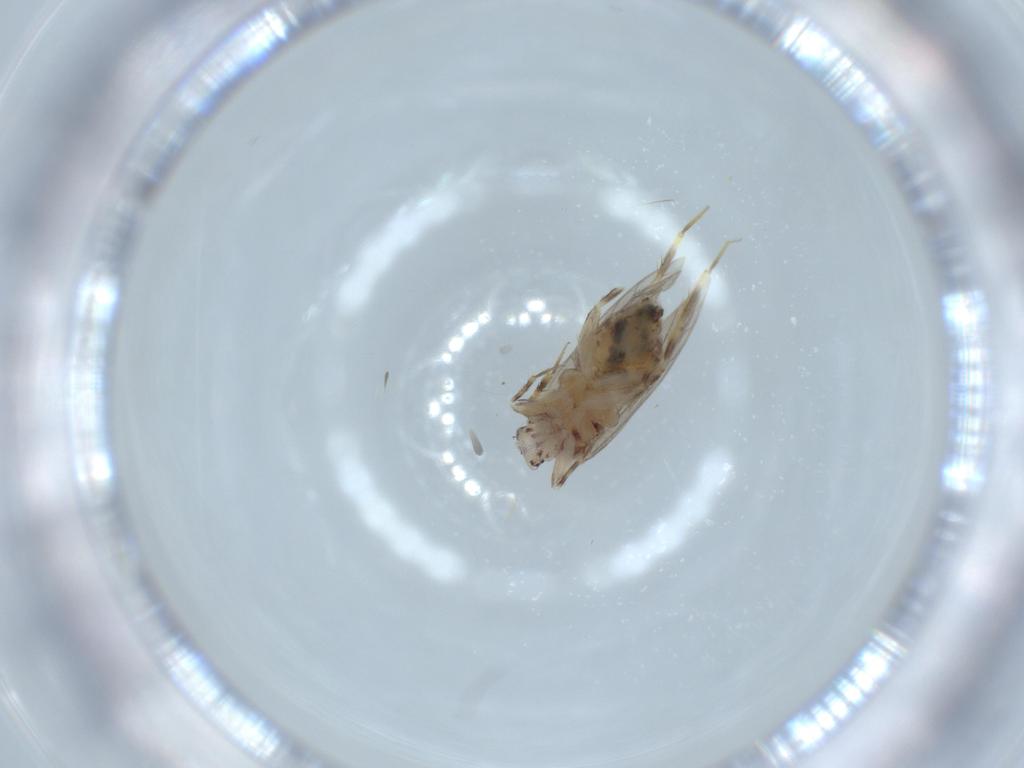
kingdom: Animalia
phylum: Arthropoda
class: Insecta
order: Psocodea
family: Lepidopsocidae
